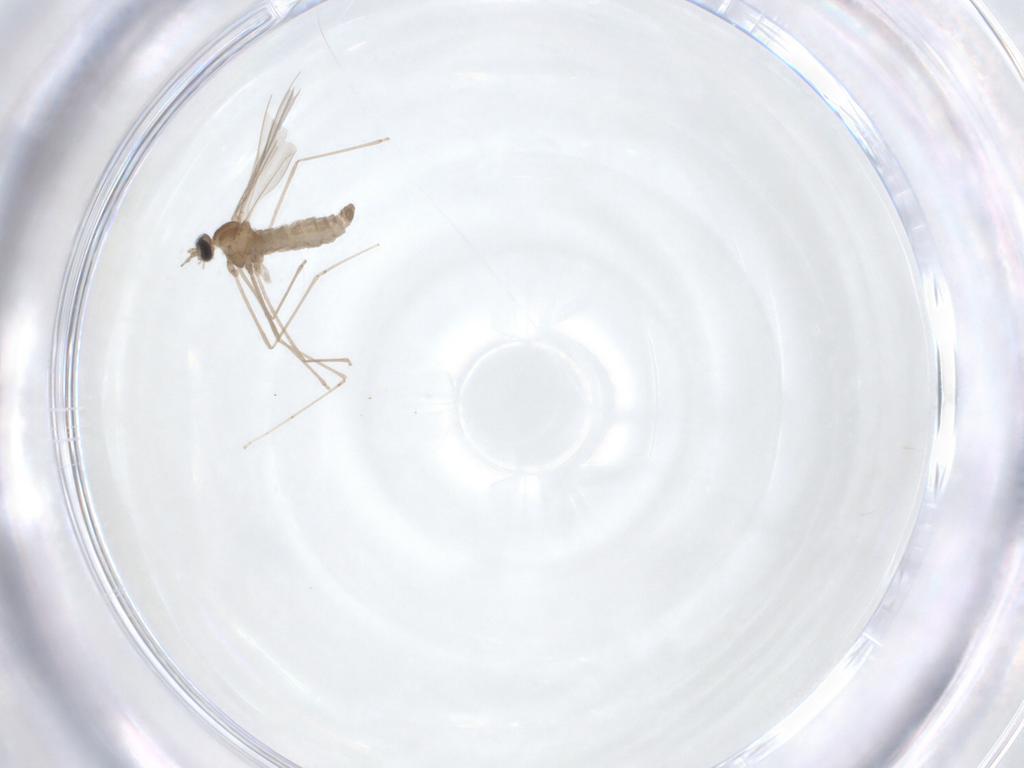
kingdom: Animalia
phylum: Arthropoda
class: Insecta
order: Diptera
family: Cecidomyiidae
